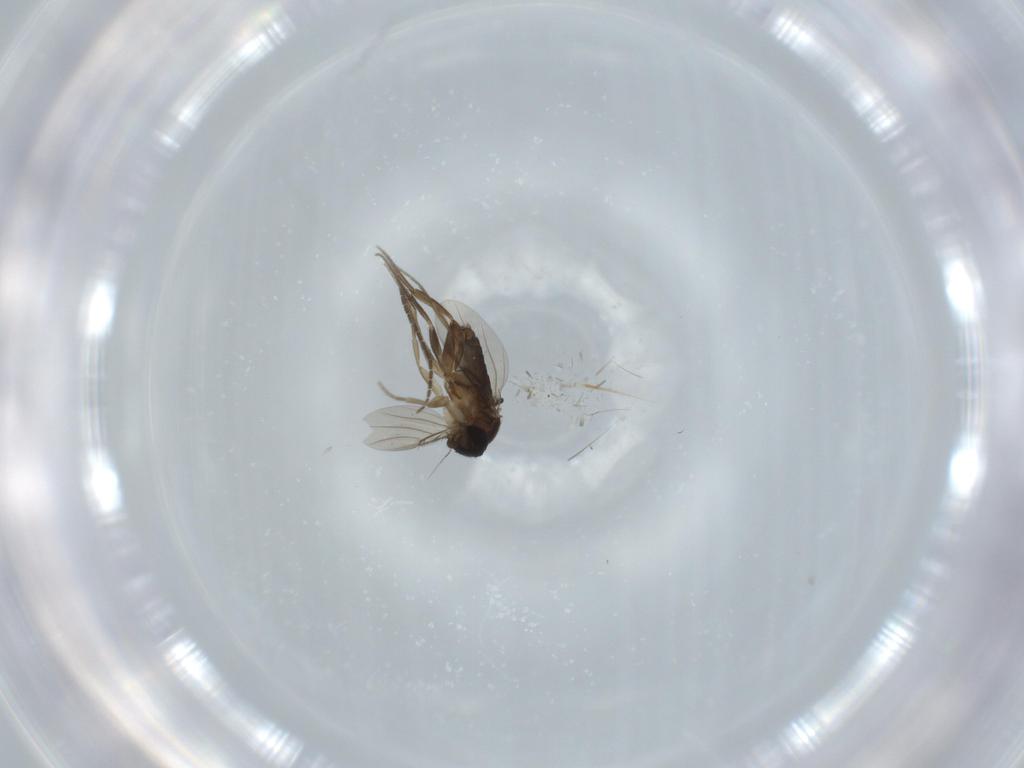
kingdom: Animalia
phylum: Arthropoda
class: Insecta
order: Diptera
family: Phoridae
